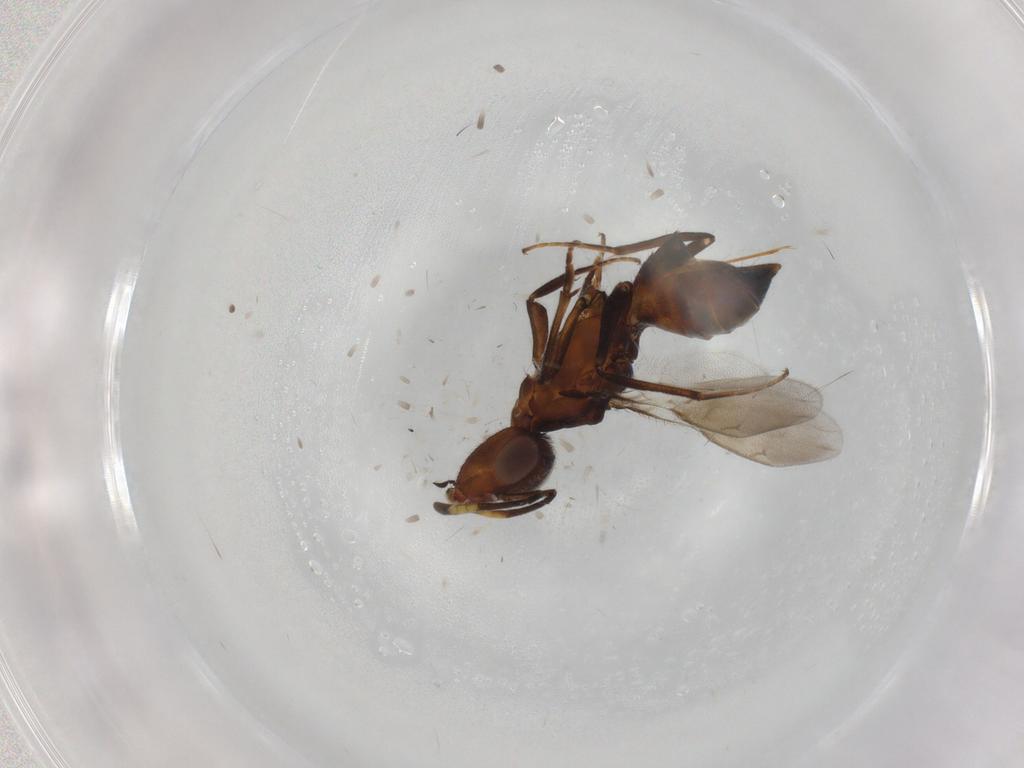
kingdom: Animalia
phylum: Arthropoda
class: Insecta
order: Hymenoptera
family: Eupelmidae
